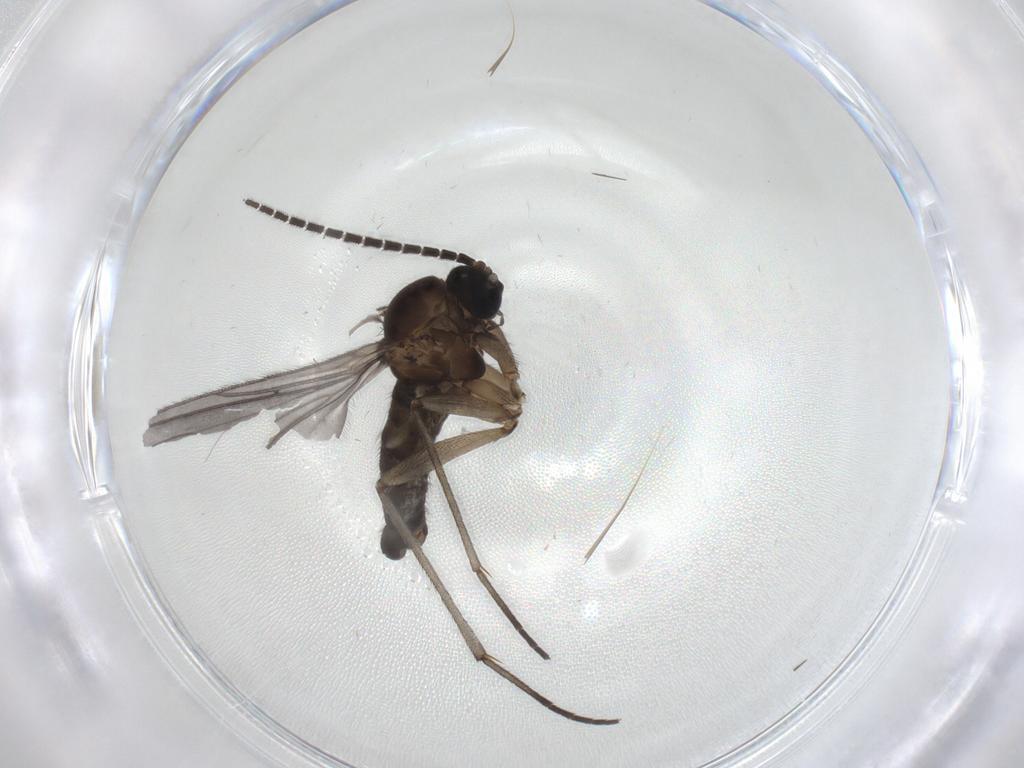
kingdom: Animalia
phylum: Arthropoda
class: Insecta
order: Diptera
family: Sciaridae
